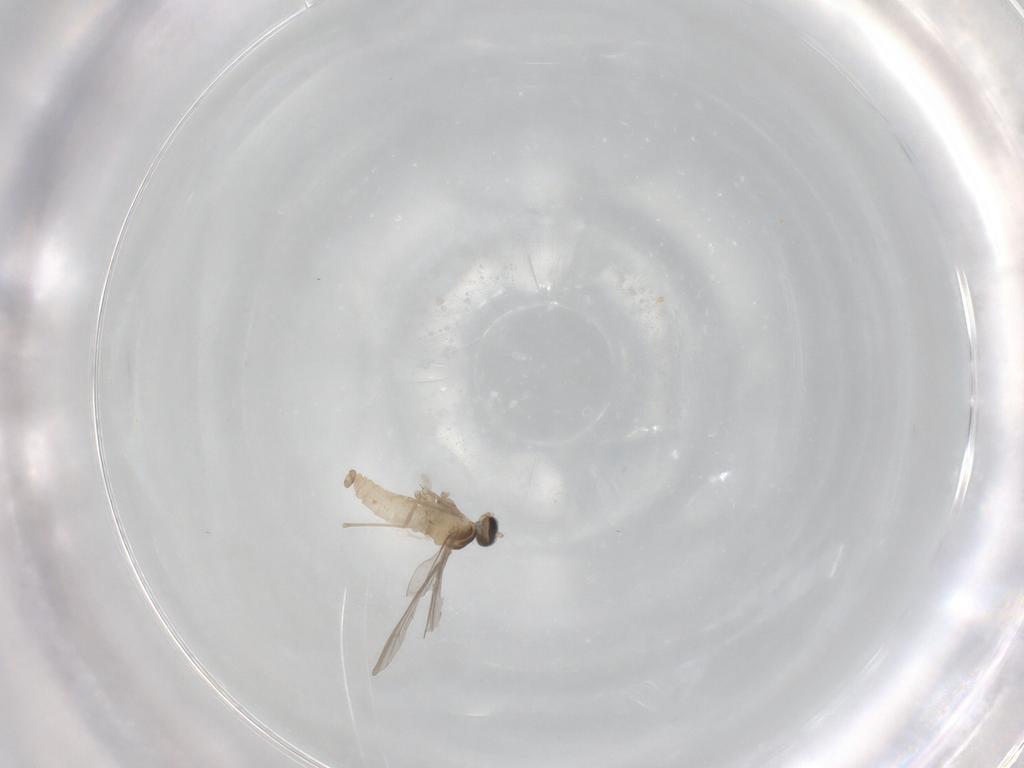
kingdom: Animalia
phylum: Arthropoda
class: Insecta
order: Diptera
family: Cecidomyiidae
